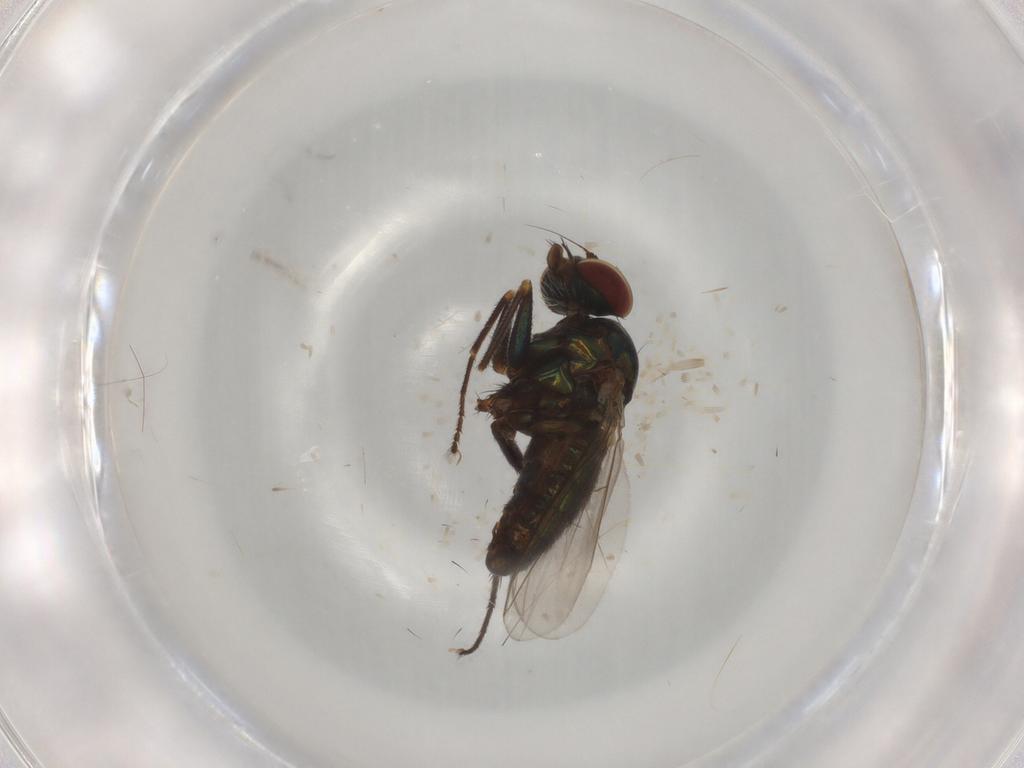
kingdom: Animalia
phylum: Arthropoda
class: Insecta
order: Diptera
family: Dolichopodidae
